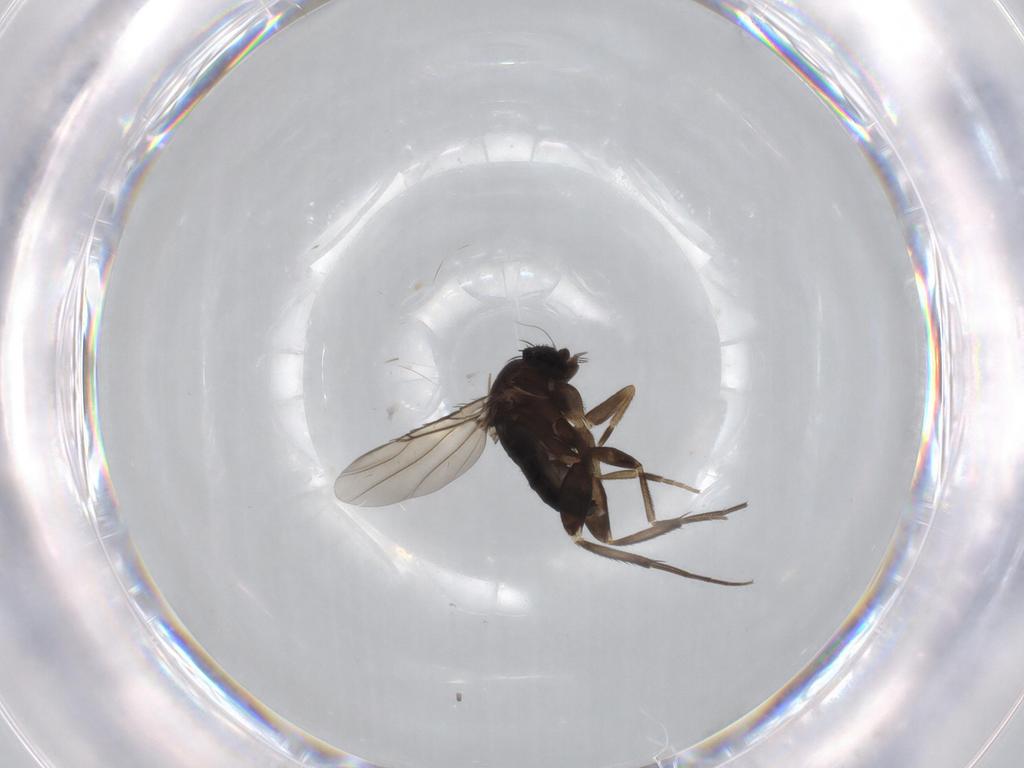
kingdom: Animalia
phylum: Arthropoda
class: Insecta
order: Diptera
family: Phoridae
